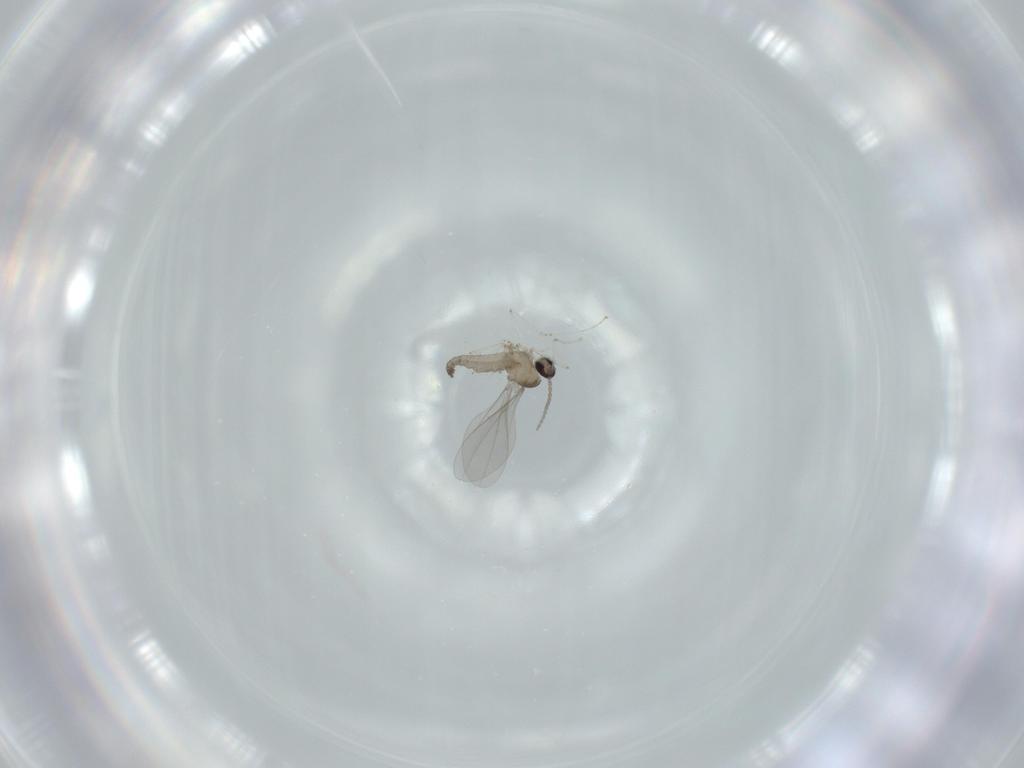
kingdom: Animalia
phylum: Arthropoda
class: Insecta
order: Diptera
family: Cecidomyiidae
